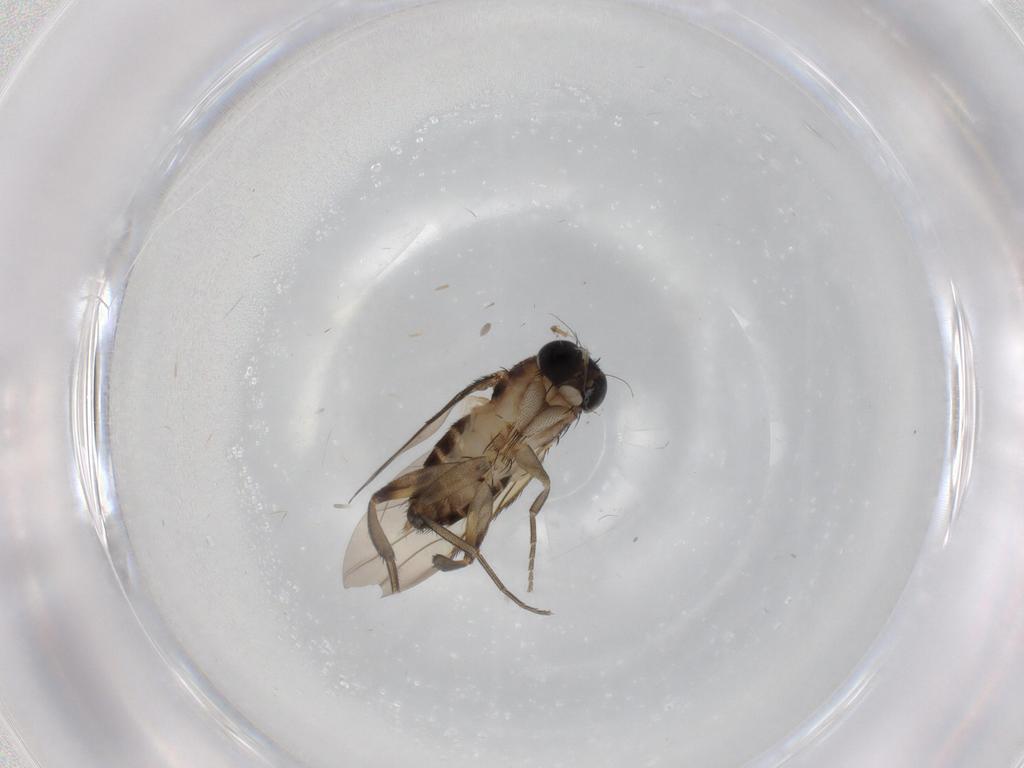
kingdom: Animalia
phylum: Arthropoda
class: Insecta
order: Diptera
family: Phoridae
